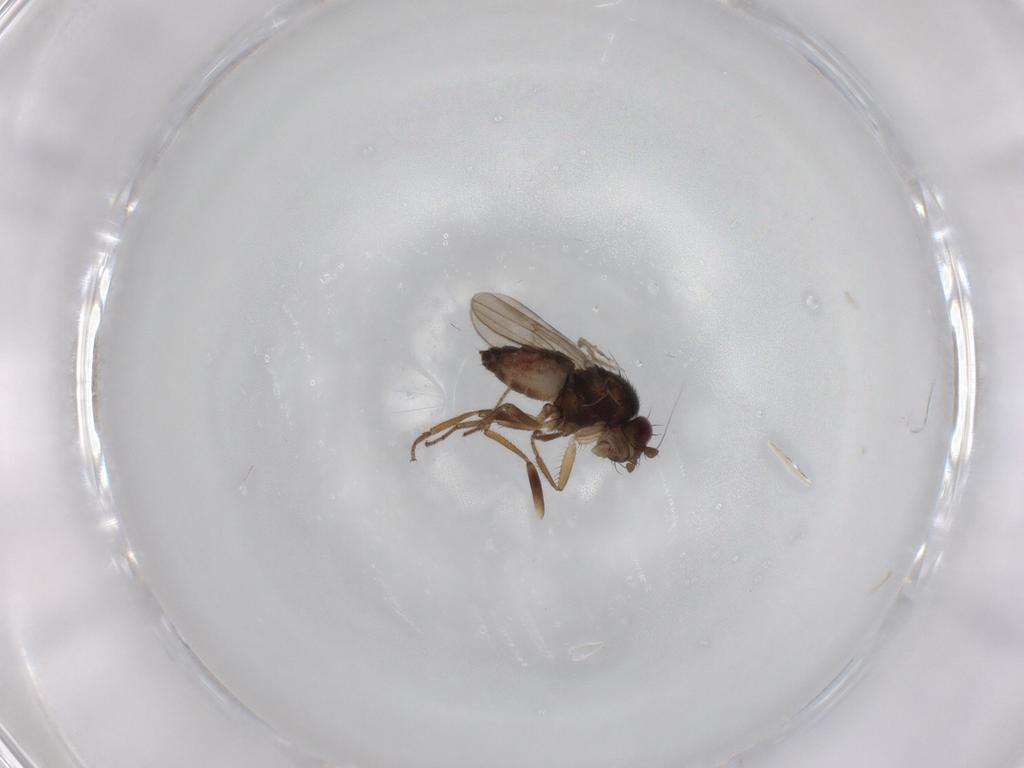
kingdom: Animalia
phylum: Arthropoda
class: Insecta
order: Diptera
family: Sphaeroceridae
